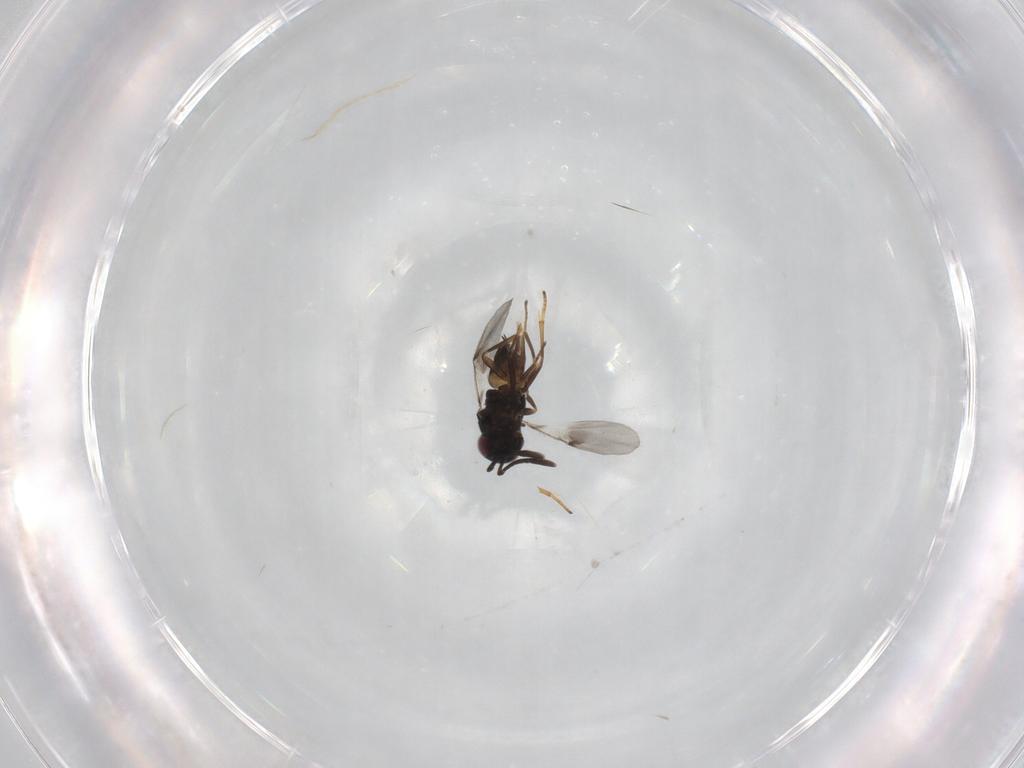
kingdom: Animalia
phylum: Arthropoda
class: Insecta
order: Hymenoptera
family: Encyrtidae
